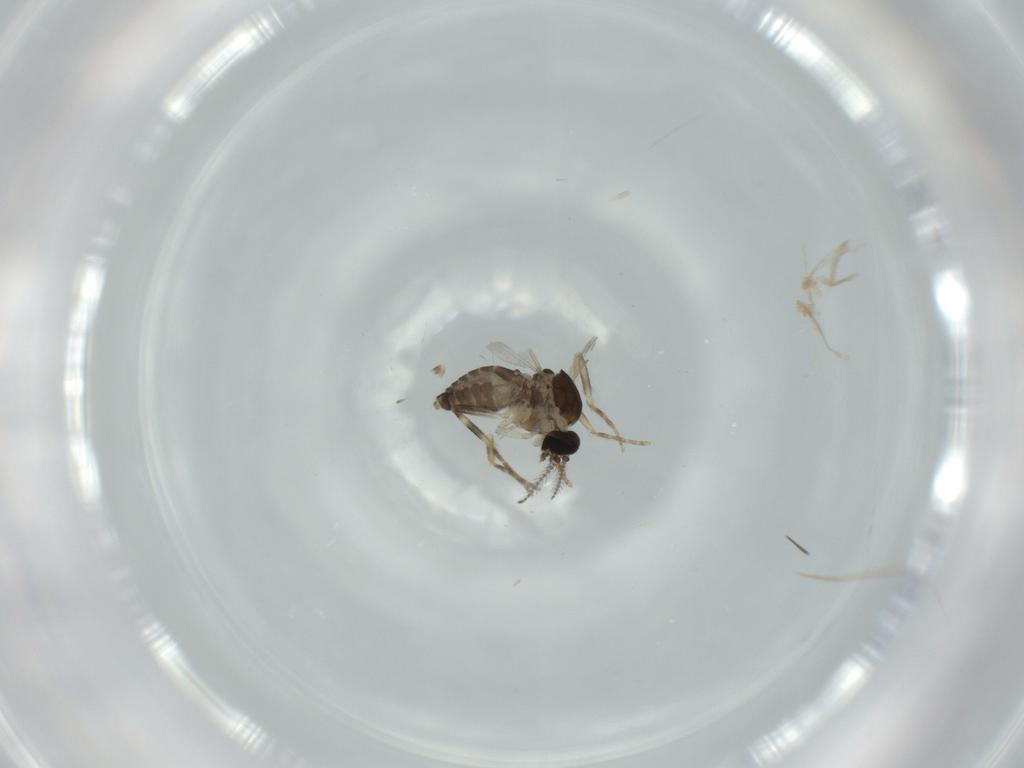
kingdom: Animalia
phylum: Arthropoda
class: Insecta
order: Diptera
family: Ceratopogonidae
